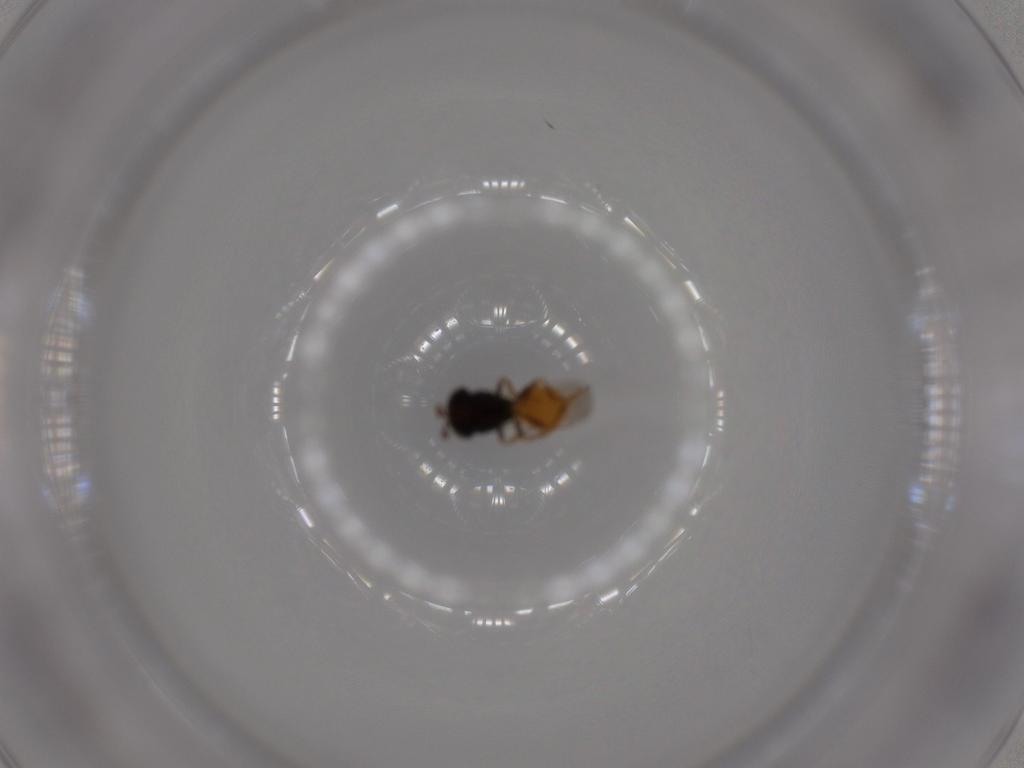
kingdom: Animalia
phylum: Arthropoda
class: Insecta
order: Hymenoptera
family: Scelionidae
